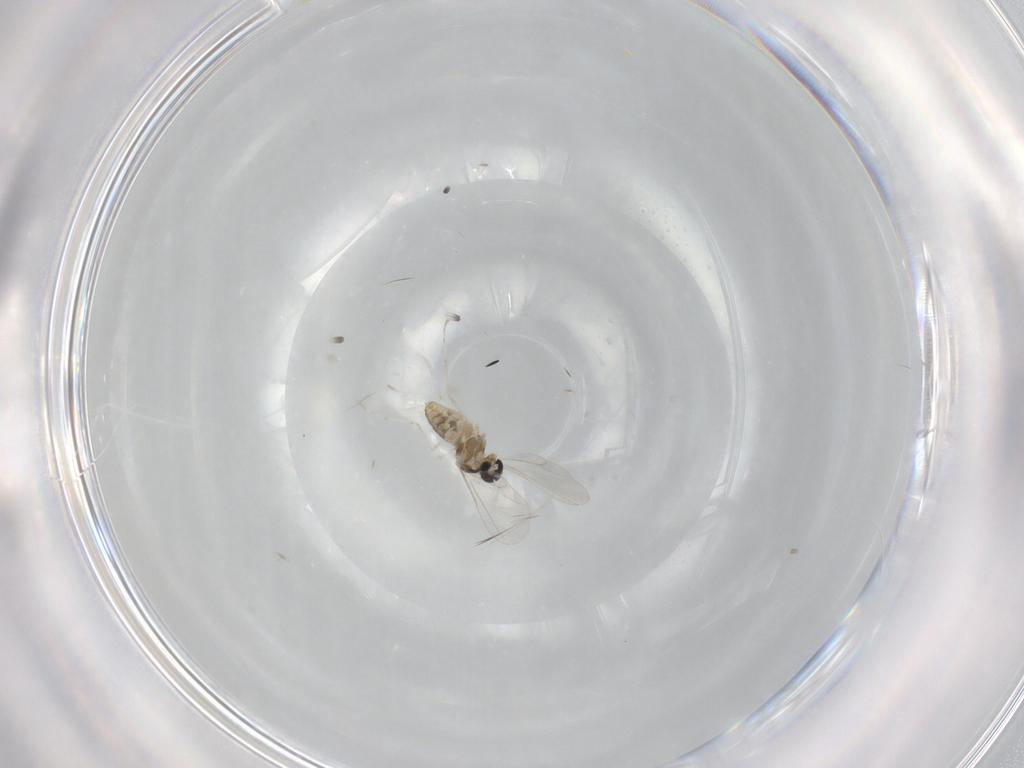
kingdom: Animalia
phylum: Arthropoda
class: Insecta
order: Diptera
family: Cecidomyiidae
